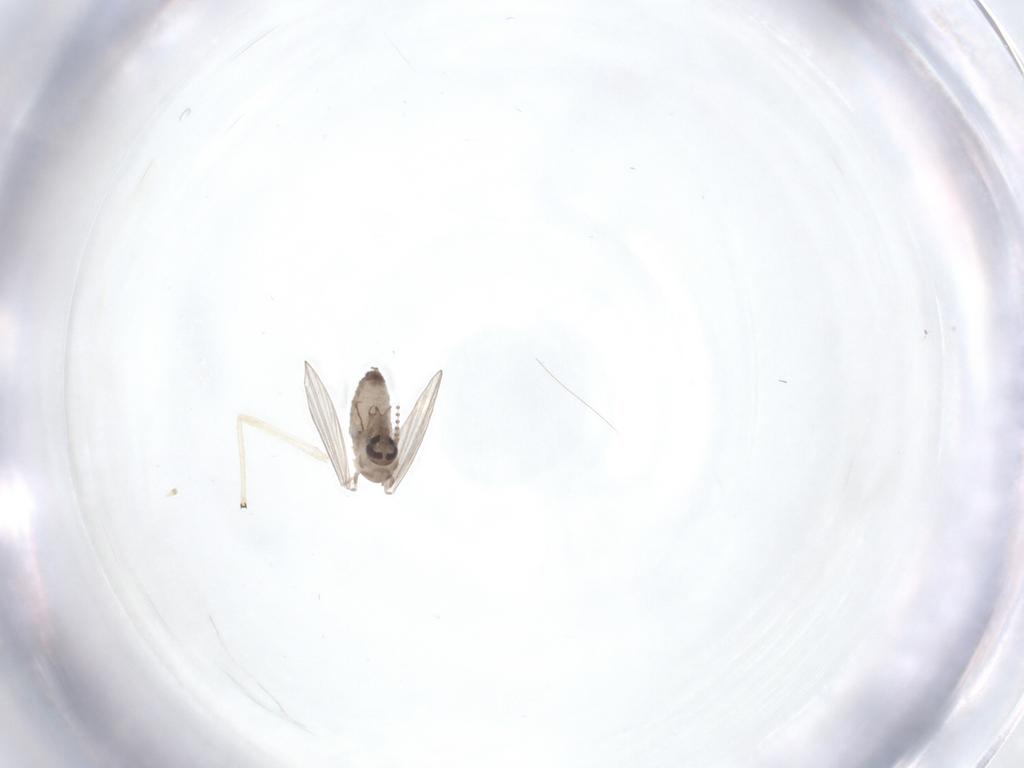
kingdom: Animalia
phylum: Arthropoda
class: Insecta
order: Diptera
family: Psychodidae
